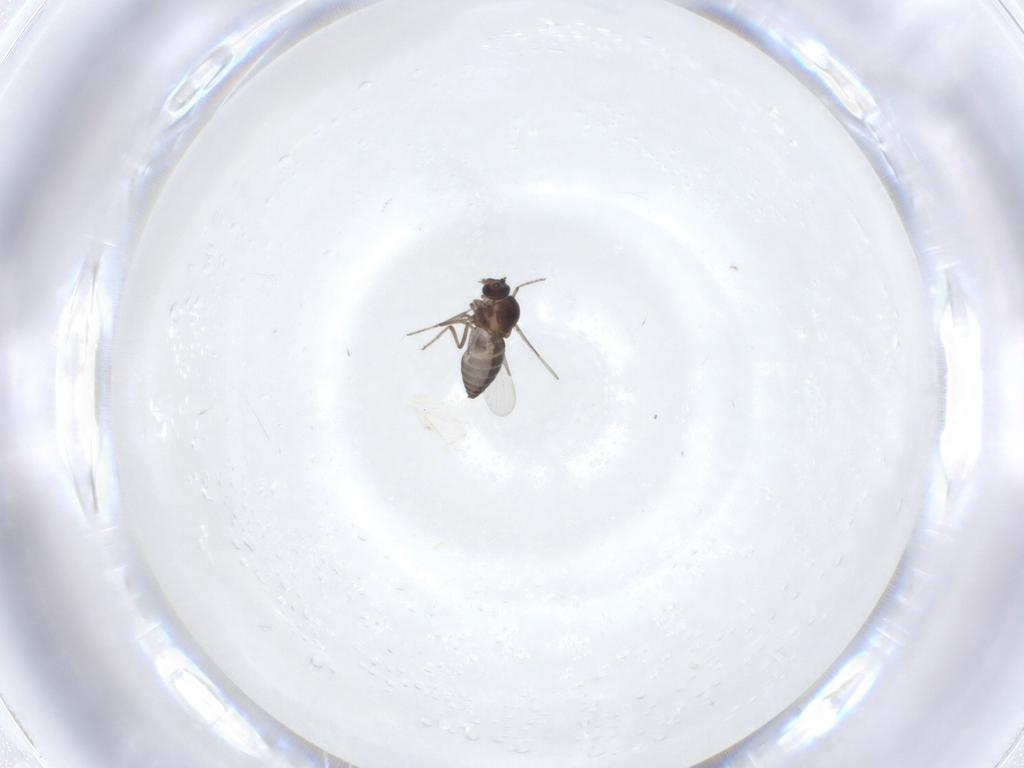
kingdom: Animalia
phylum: Arthropoda
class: Insecta
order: Diptera
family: Ceratopogonidae
